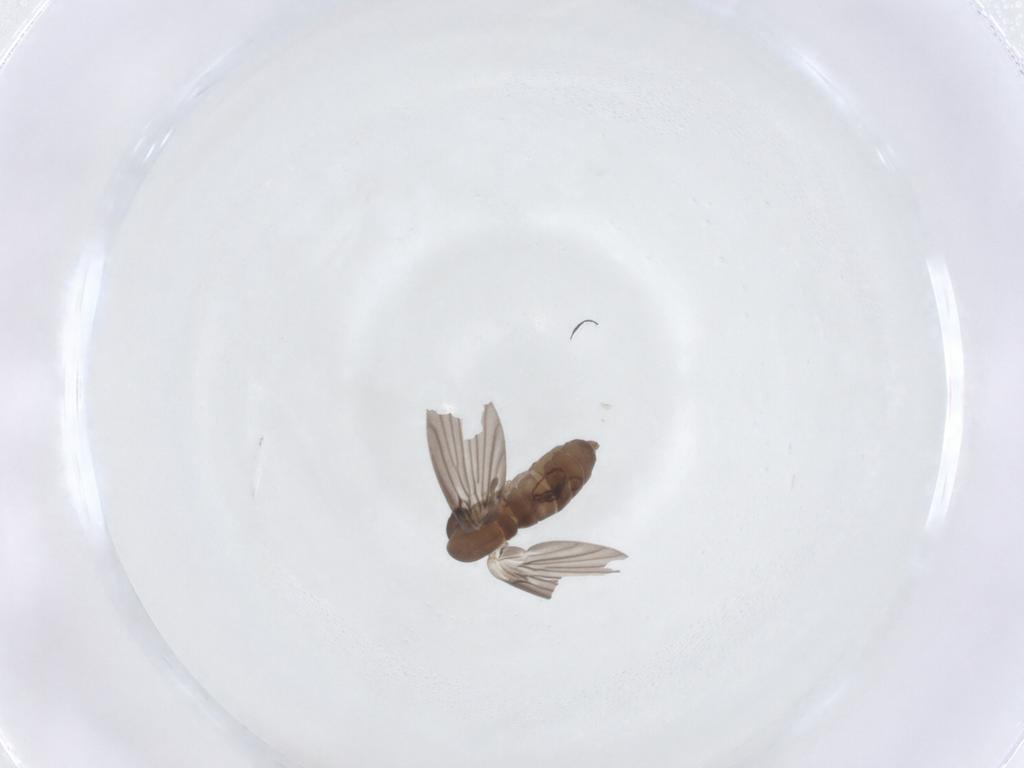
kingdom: Animalia
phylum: Arthropoda
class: Insecta
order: Diptera
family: Psychodidae
